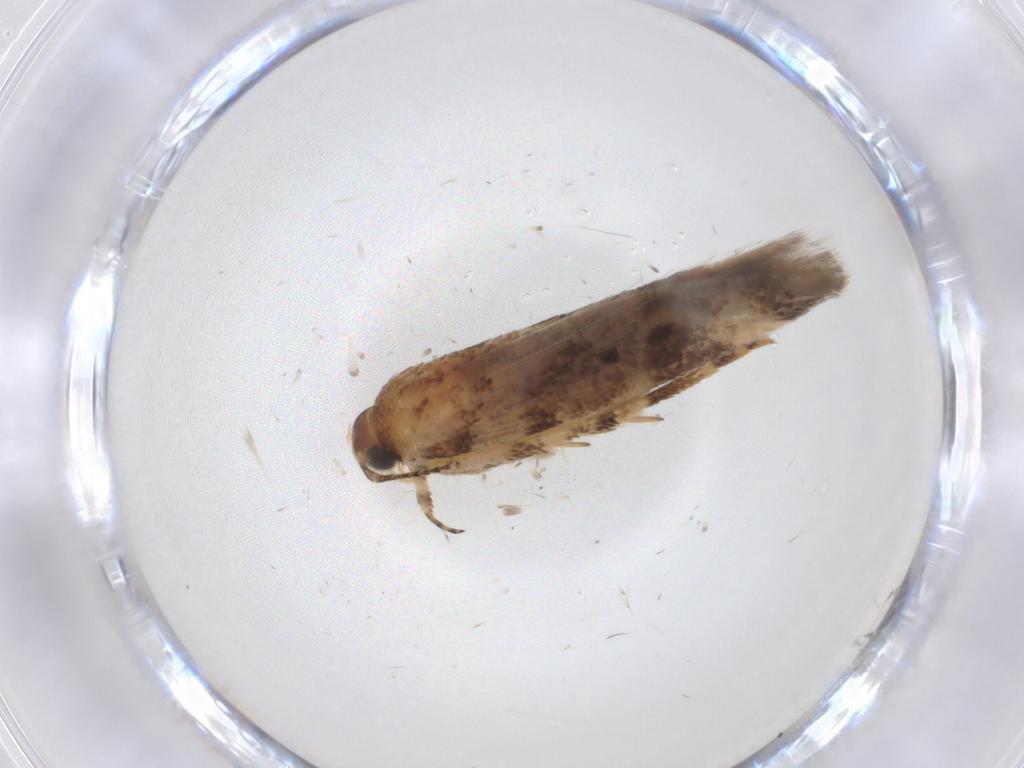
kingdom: Animalia
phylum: Arthropoda
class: Insecta
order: Lepidoptera
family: Gelechiidae
